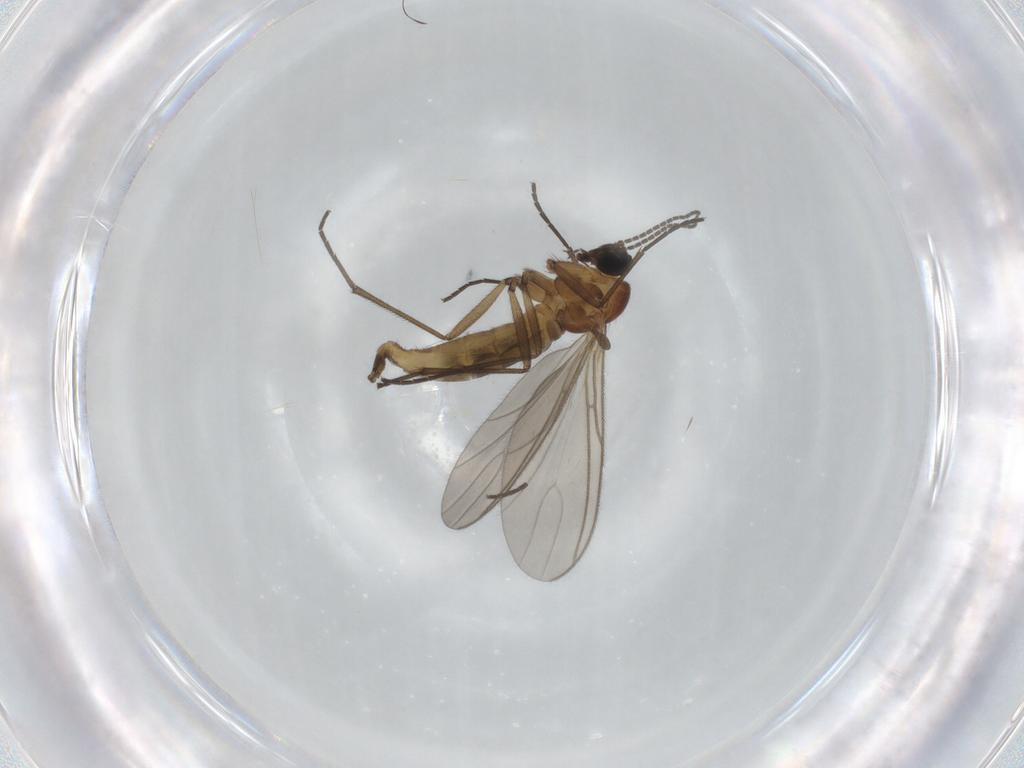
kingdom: Animalia
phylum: Arthropoda
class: Insecta
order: Diptera
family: Sciaridae
